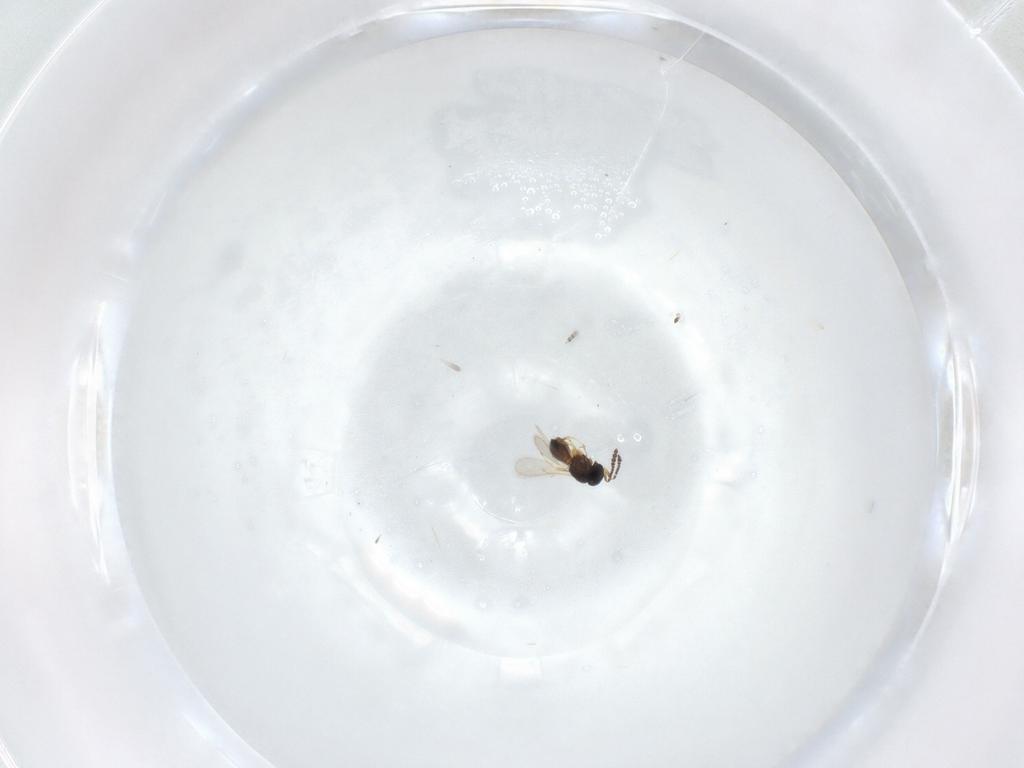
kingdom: Animalia
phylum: Arthropoda
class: Insecta
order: Hymenoptera
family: Scelionidae
